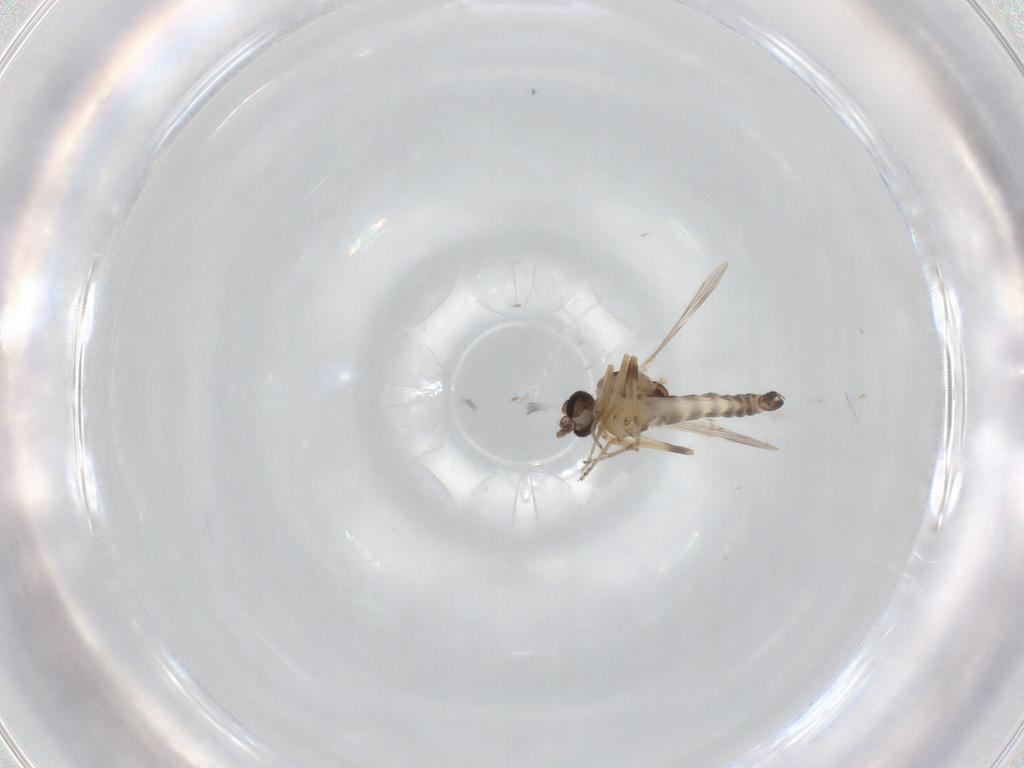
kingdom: Animalia
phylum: Arthropoda
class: Insecta
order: Diptera
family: Ceratopogonidae
